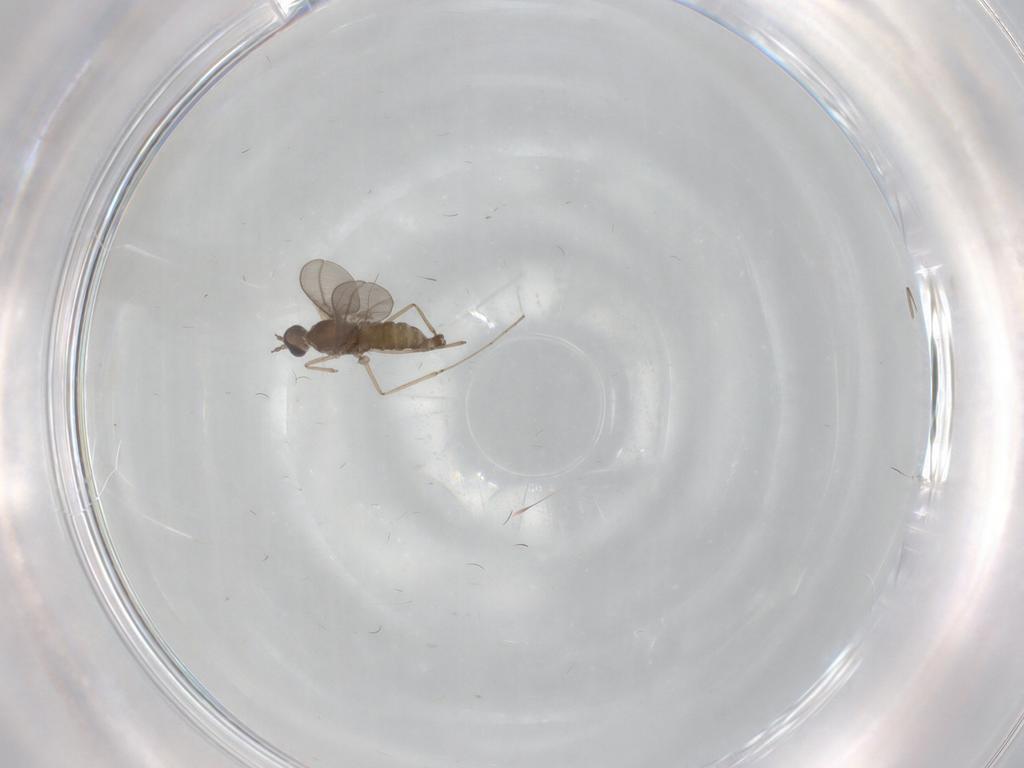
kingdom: Animalia
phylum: Arthropoda
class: Insecta
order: Diptera
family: Cecidomyiidae
